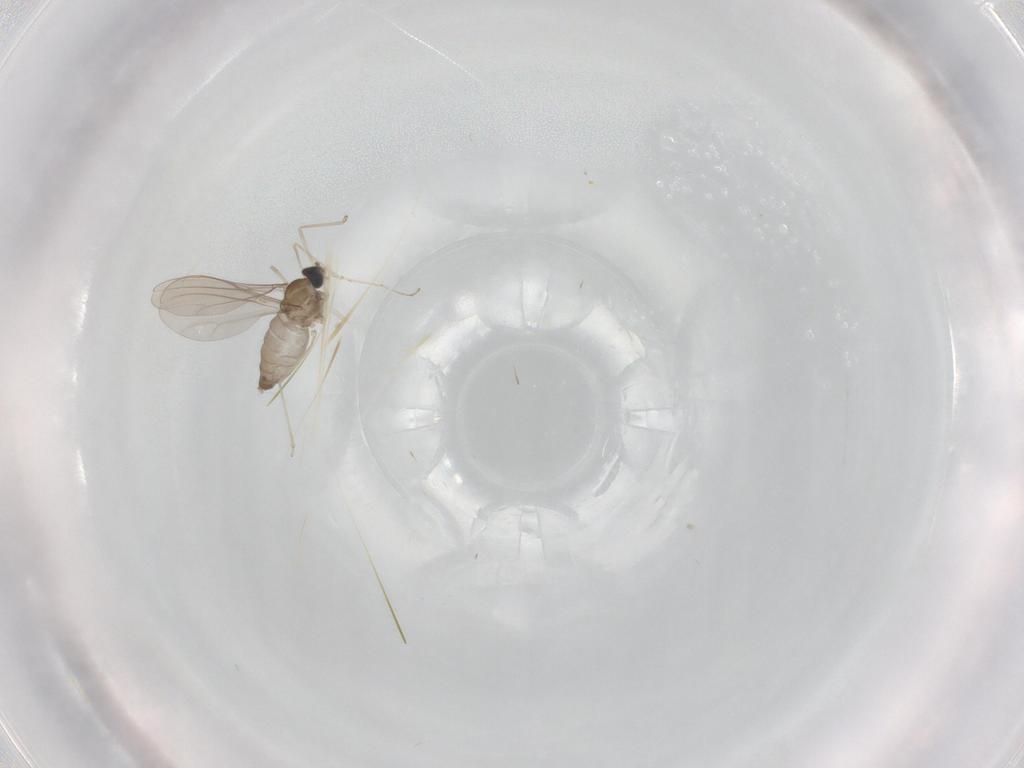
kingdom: Animalia
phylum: Arthropoda
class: Insecta
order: Diptera
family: Cecidomyiidae
